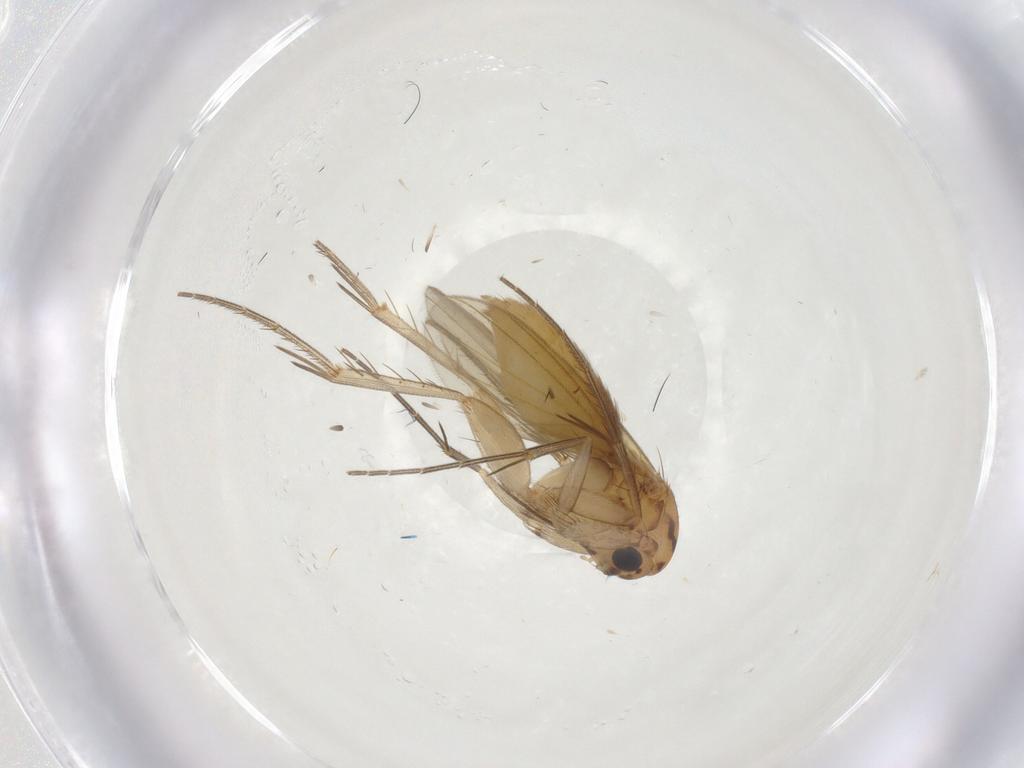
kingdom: Animalia
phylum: Arthropoda
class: Insecta
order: Diptera
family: Mycetophilidae
